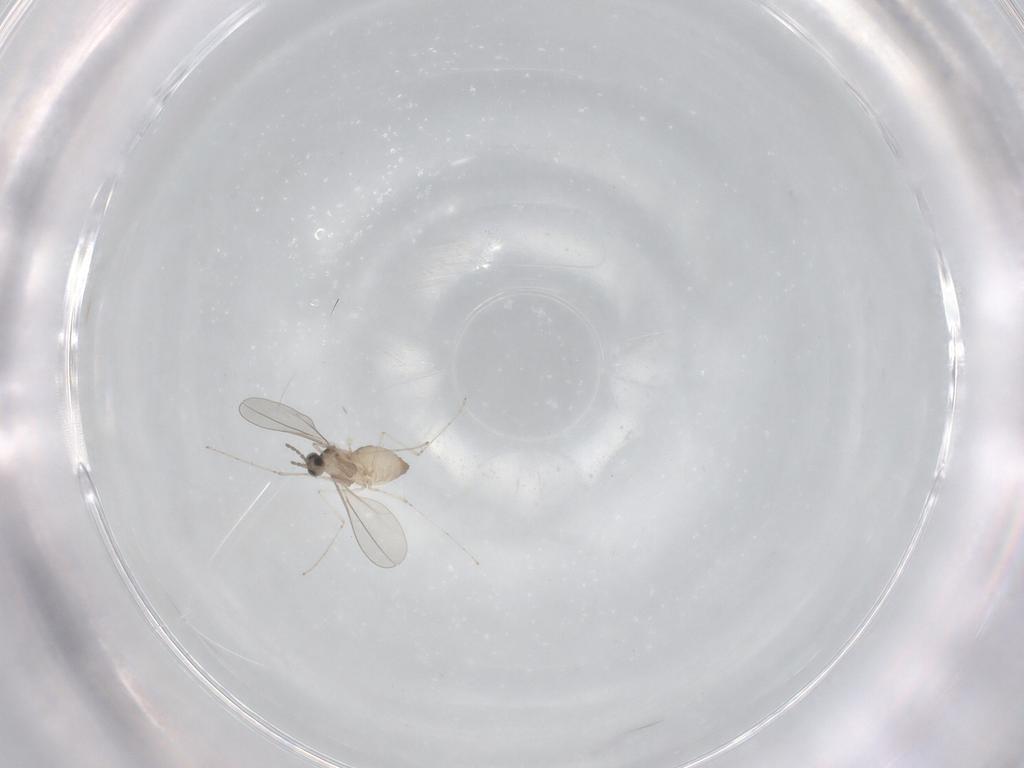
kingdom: Animalia
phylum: Arthropoda
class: Insecta
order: Diptera
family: Cecidomyiidae
